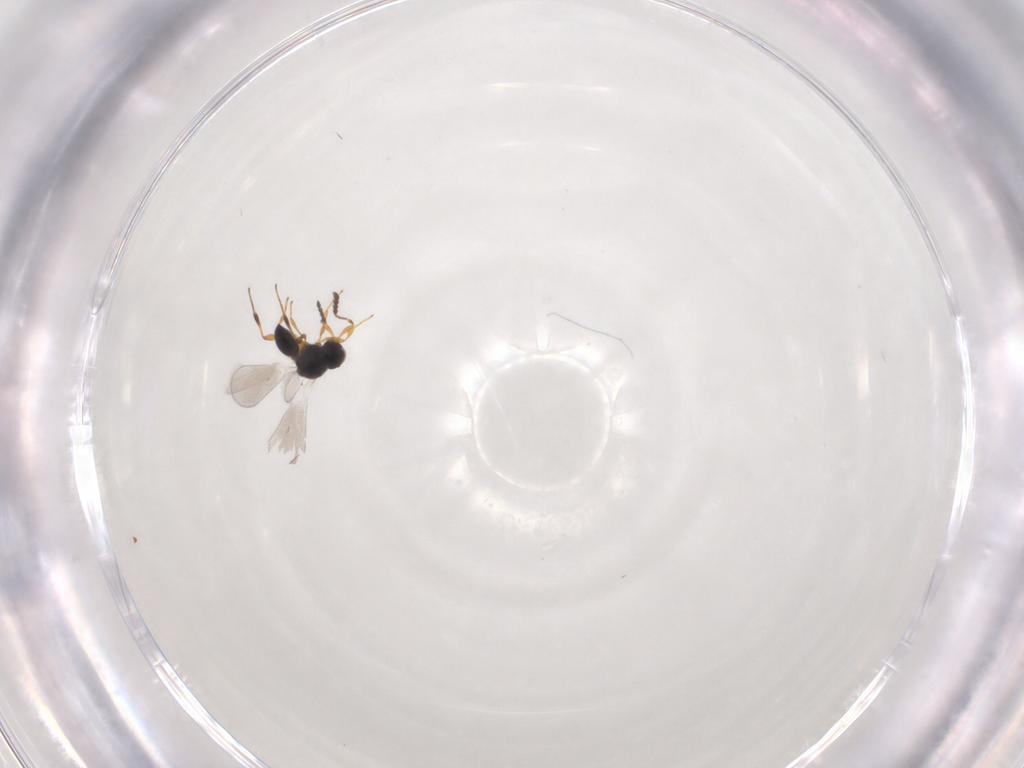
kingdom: Animalia
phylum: Arthropoda
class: Insecta
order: Hymenoptera
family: Platygastridae
